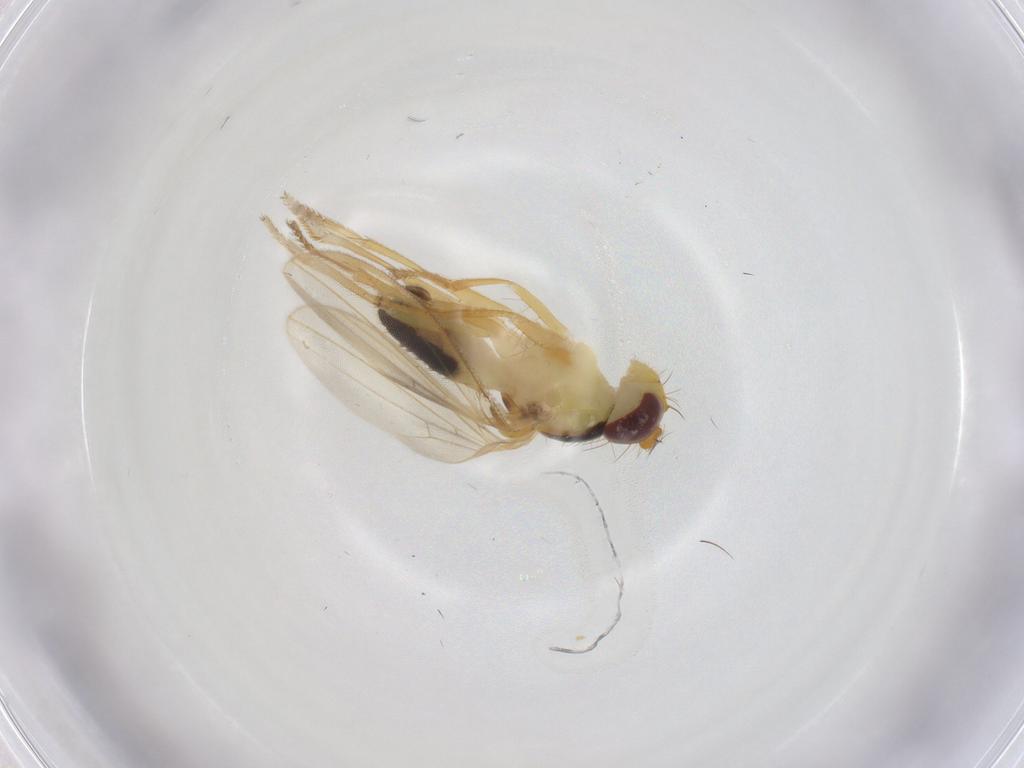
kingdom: Animalia
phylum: Arthropoda
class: Insecta
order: Diptera
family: Periscelididae
